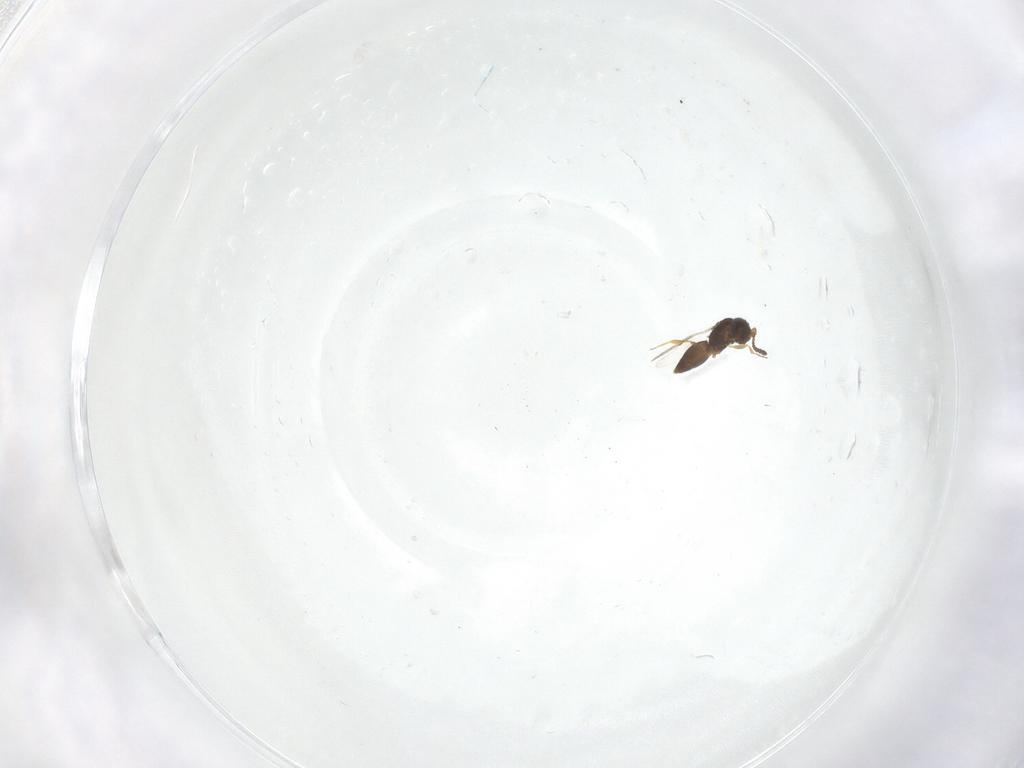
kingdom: Animalia
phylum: Arthropoda
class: Insecta
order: Hymenoptera
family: Ceraphronidae
